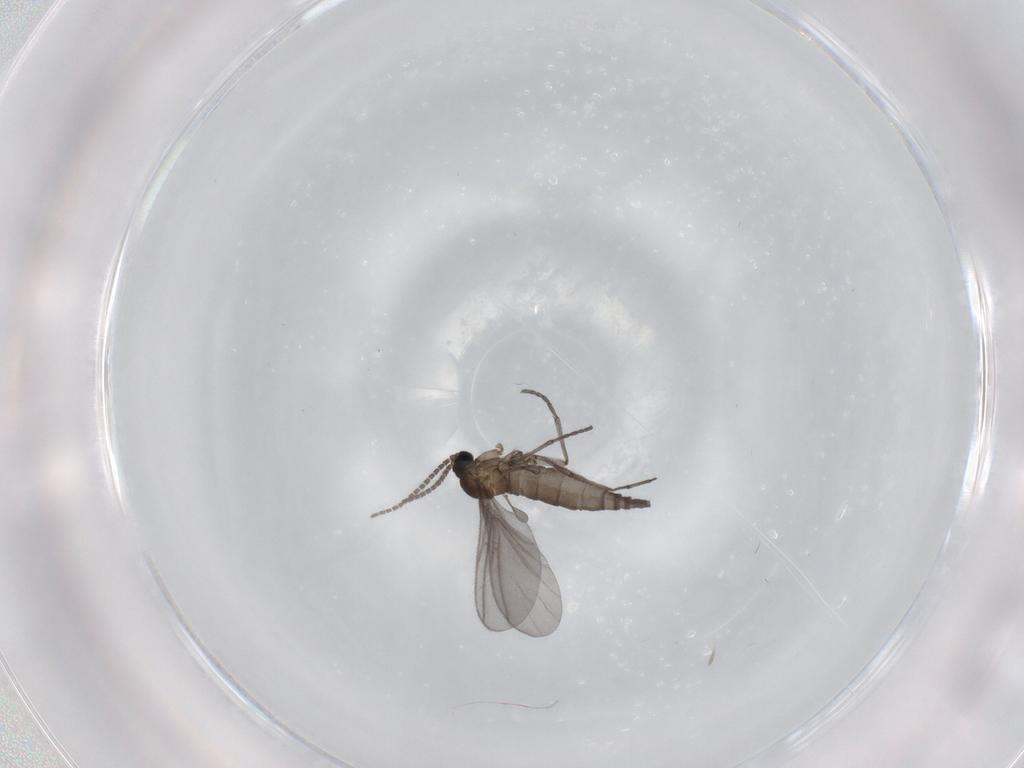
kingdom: Animalia
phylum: Arthropoda
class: Insecta
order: Diptera
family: Sciaridae
